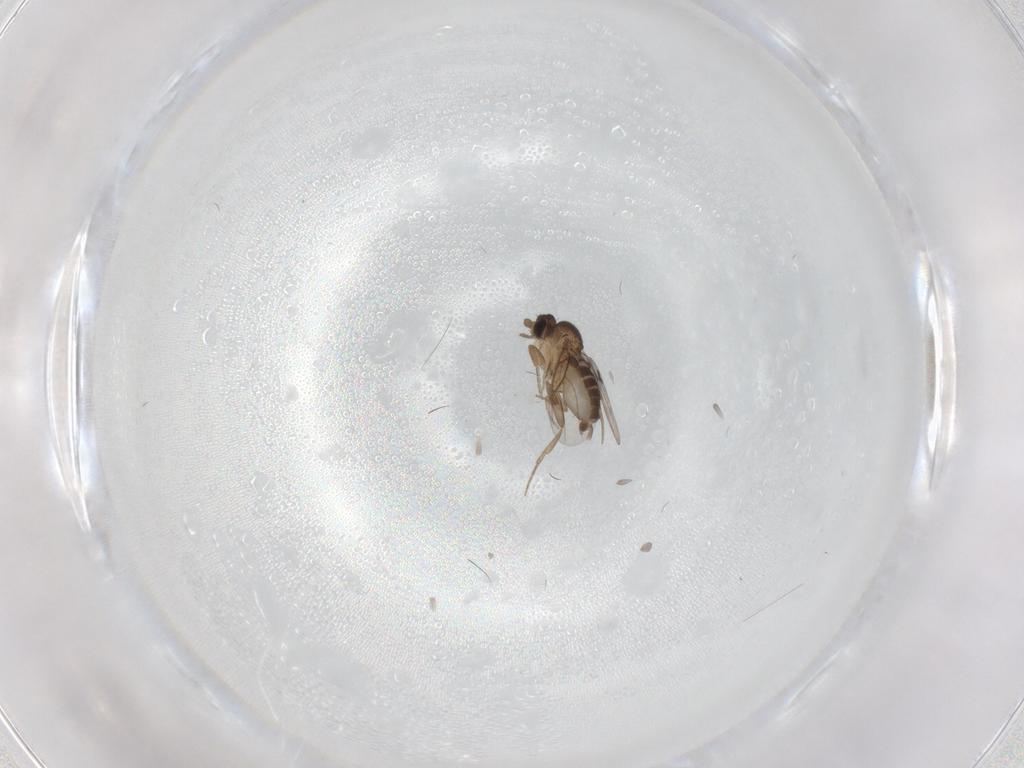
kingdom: Animalia
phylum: Arthropoda
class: Insecta
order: Diptera
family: Phoridae
